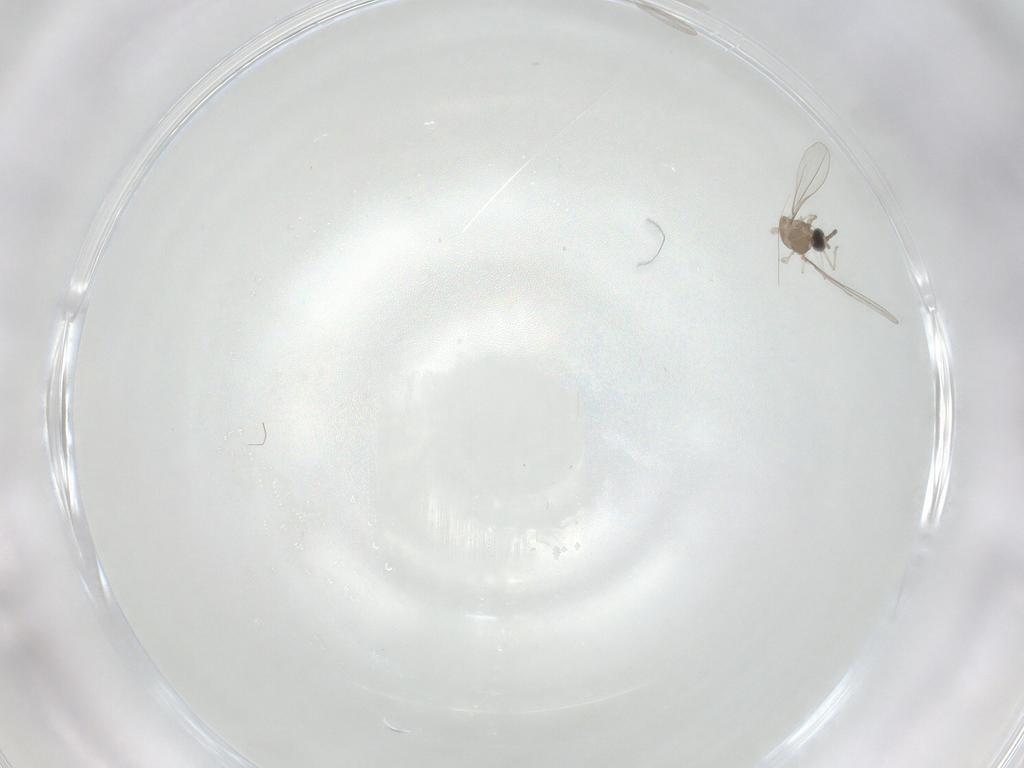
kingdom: Animalia
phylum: Arthropoda
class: Insecta
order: Diptera
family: Cecidomyiidae
